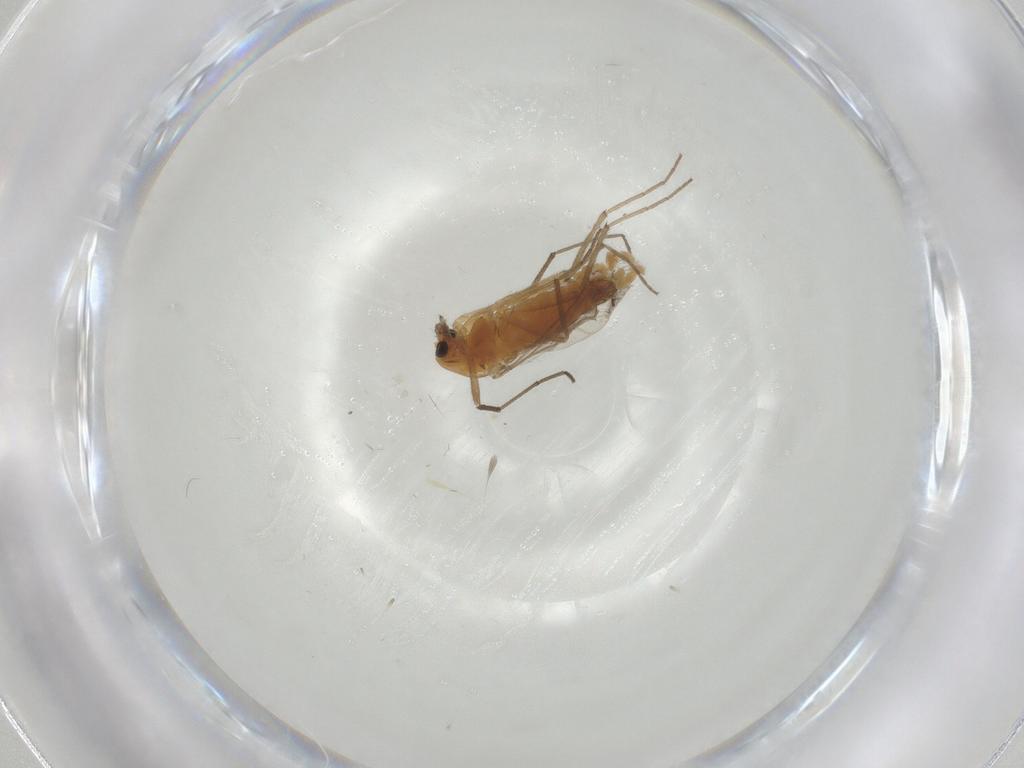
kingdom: Animalia
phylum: Arthropoda
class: Insecta
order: Diptera
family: Chironomidae
